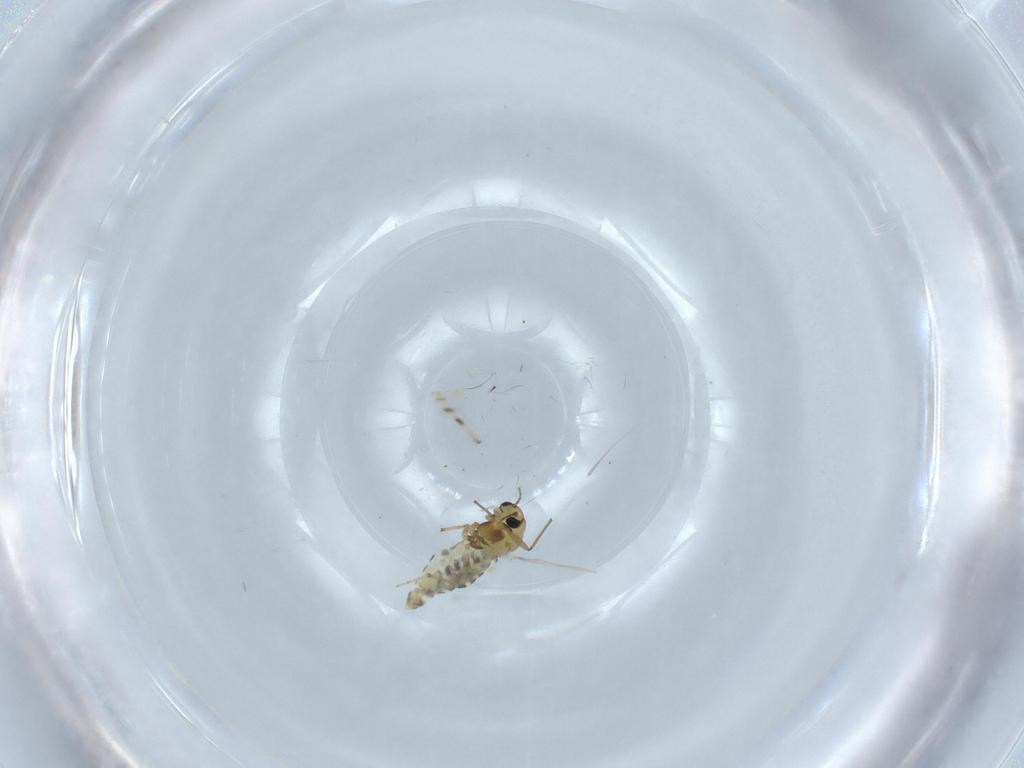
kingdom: Animalia
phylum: Arthropoda
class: Insecta
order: Diptera
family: Chironomidae
